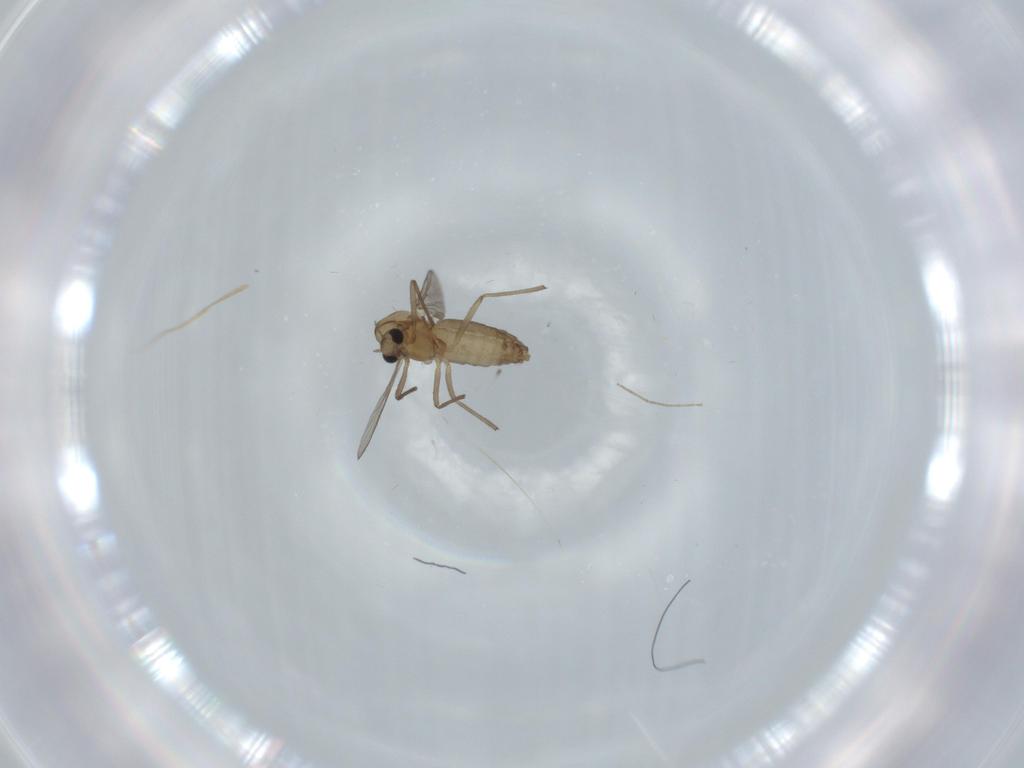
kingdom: Animalia
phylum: Arthropoda
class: Insecta
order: Diptera
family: Chironomidae
